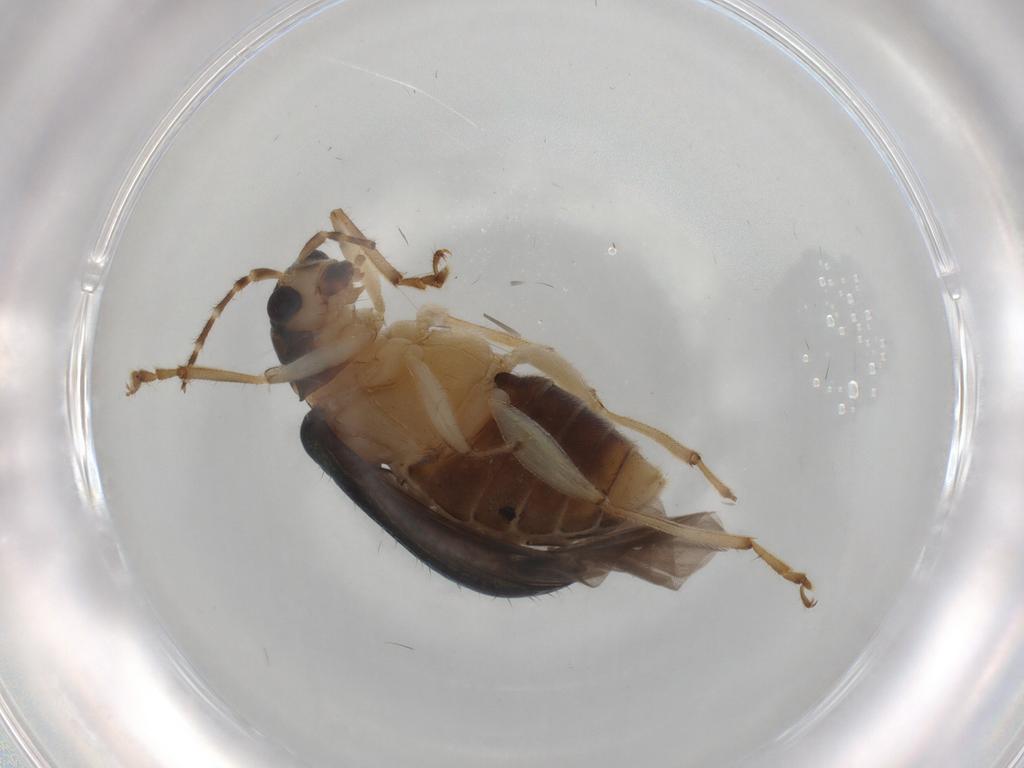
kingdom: Animalia
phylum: Arthropoda
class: Insecta
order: Coleoptera
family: Chrysomelidae
